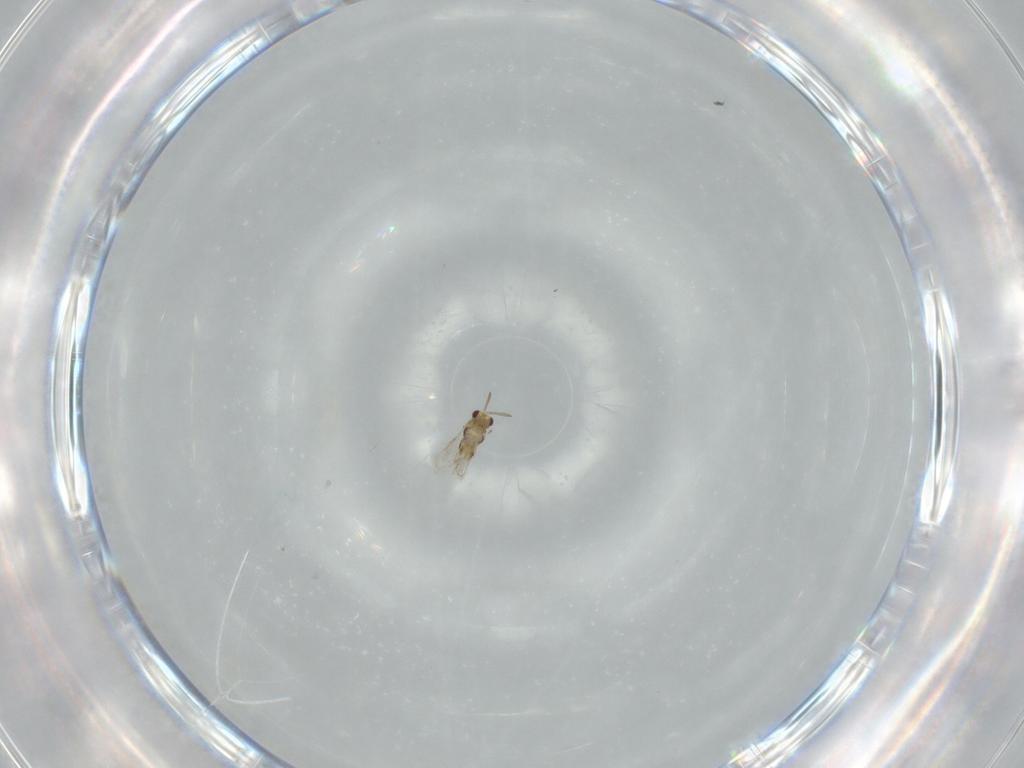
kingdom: Animalia
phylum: Arthropoda
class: Insecta
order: Hymenoptera
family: Aphelinidae
